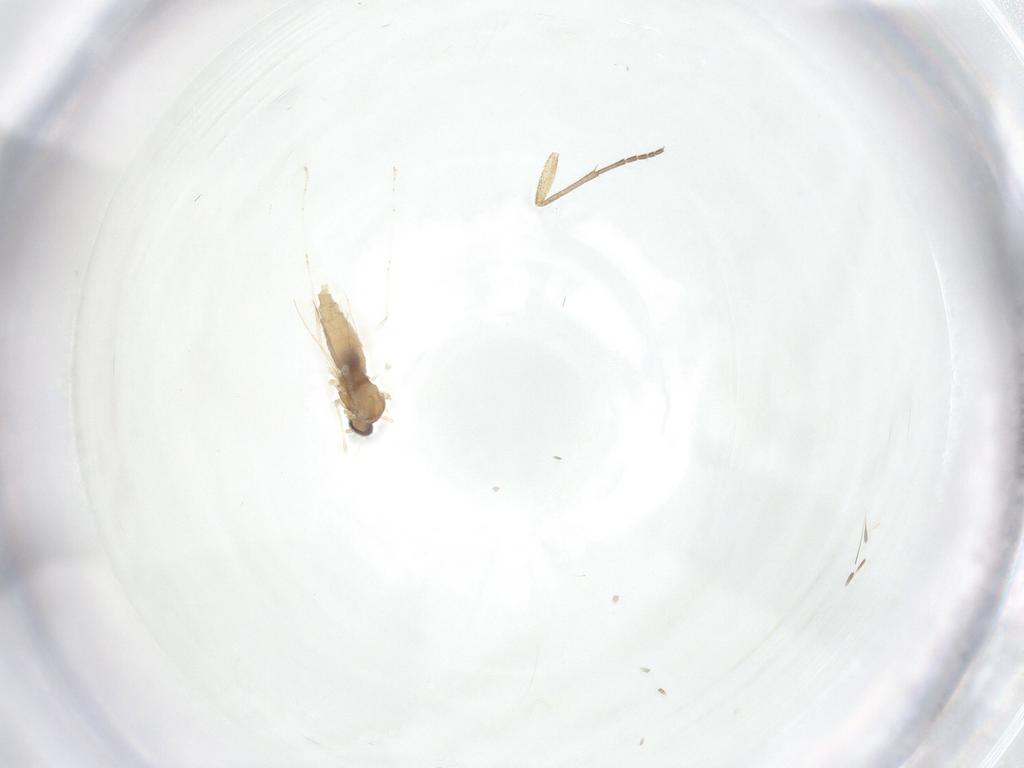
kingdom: Animalia
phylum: Arthropoda
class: Insecta
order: Diptera
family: Cecidomyiidae
